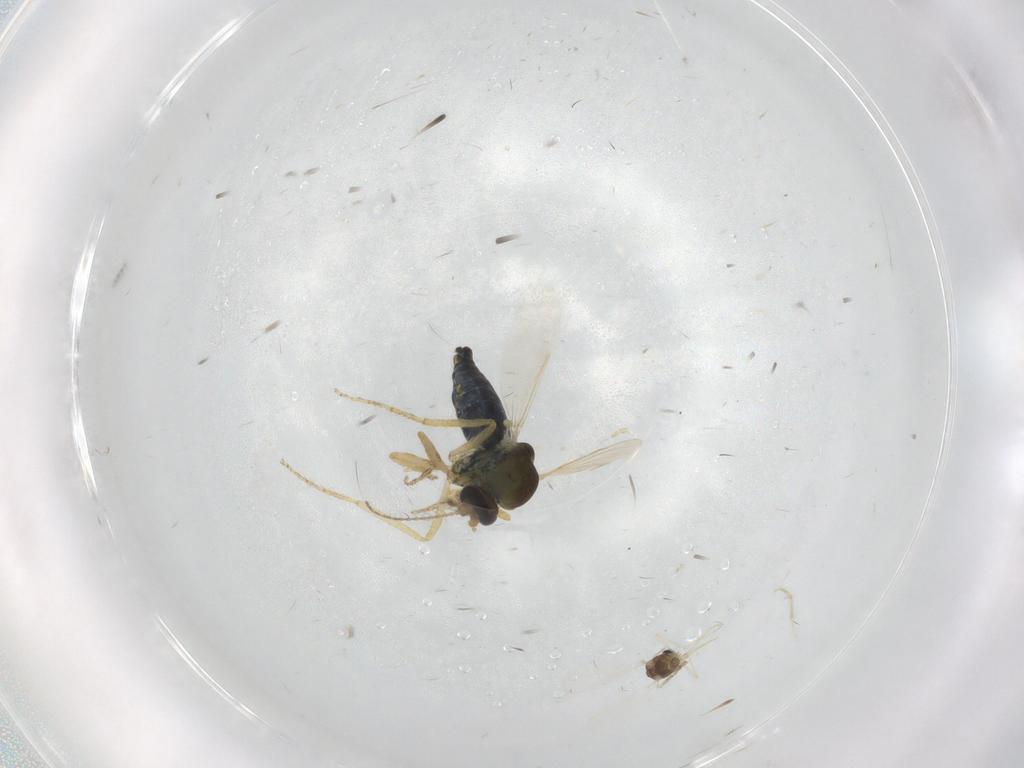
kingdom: Animalia
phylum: Arthropoda
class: Insecta
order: Diptera
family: Ceratopogonidae
